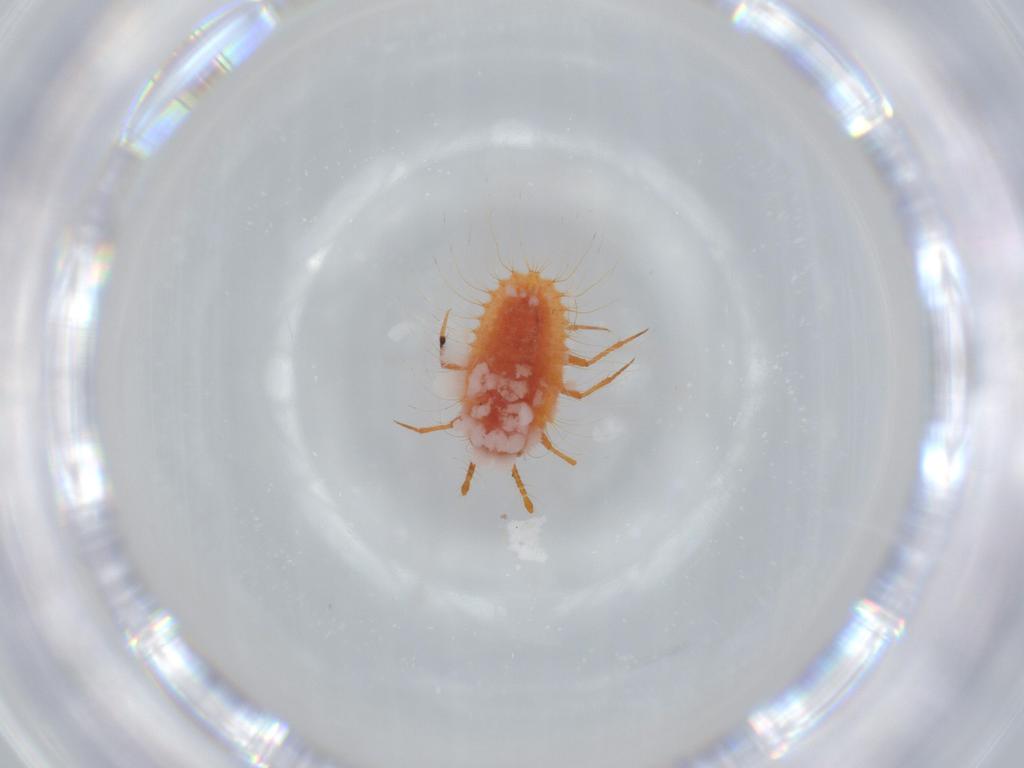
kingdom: Animalia
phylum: Arthropoda
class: Insecta
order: Hemiptera
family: Coccoidea_incertae_sedis
